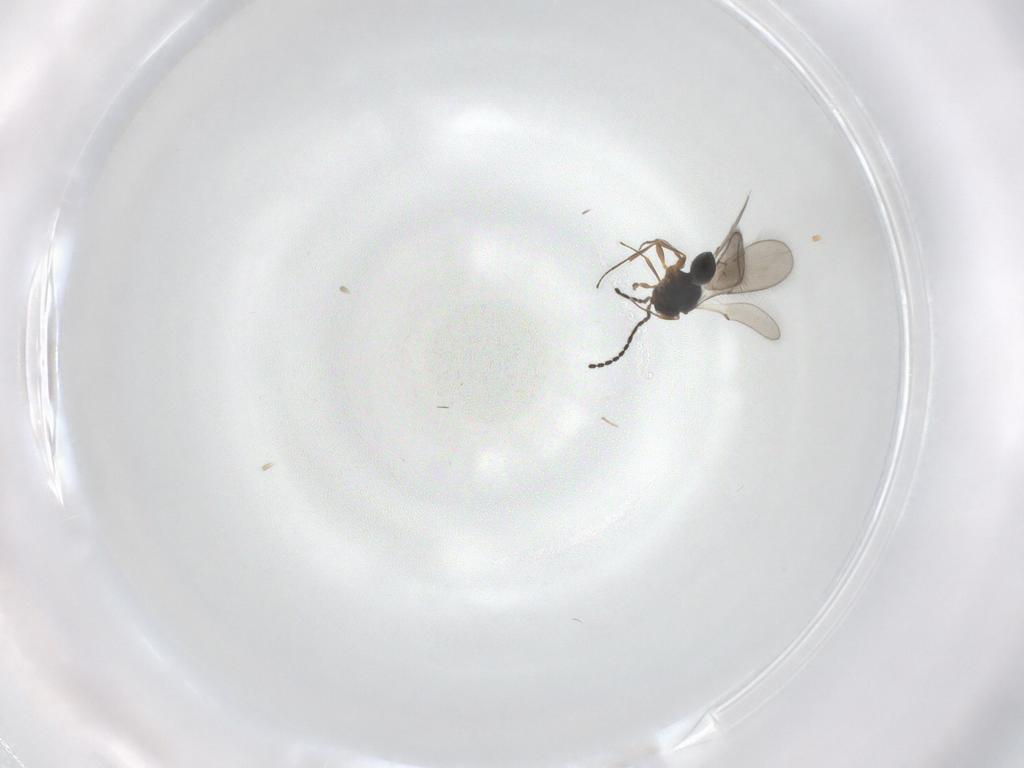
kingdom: Animalia
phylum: Arthropoda
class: Insecta
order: Hymenoptera
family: Scelionidae
